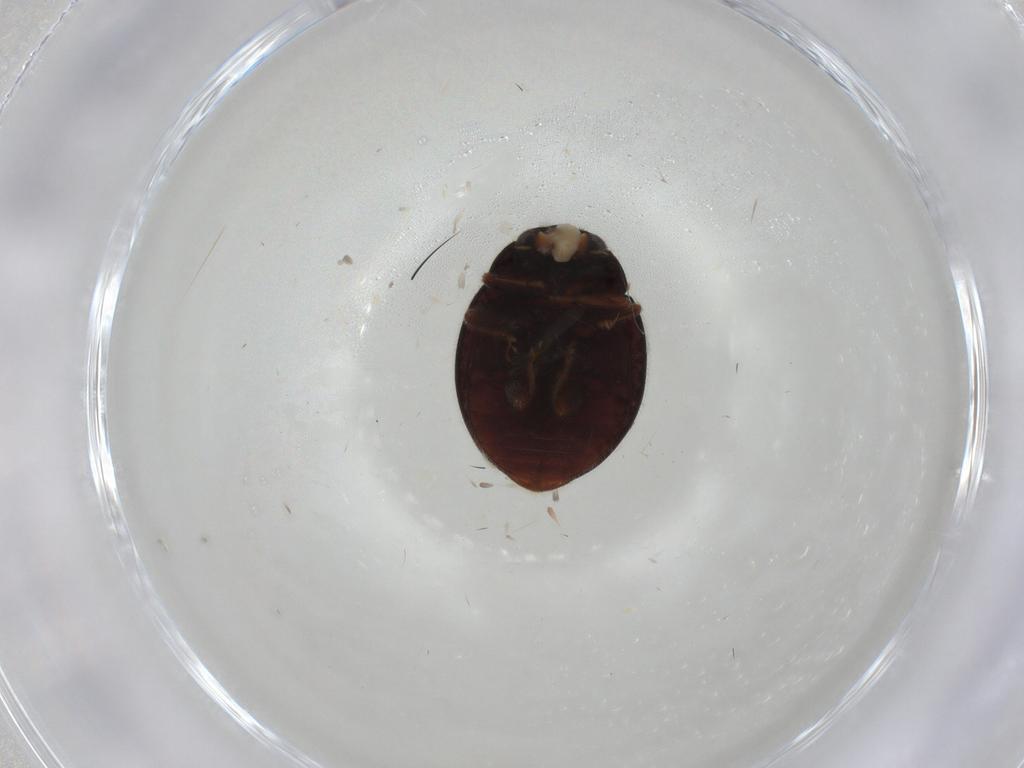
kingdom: Animalia
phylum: Arthropoda
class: Insecta
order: Coleoptera
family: Coccinellidae
